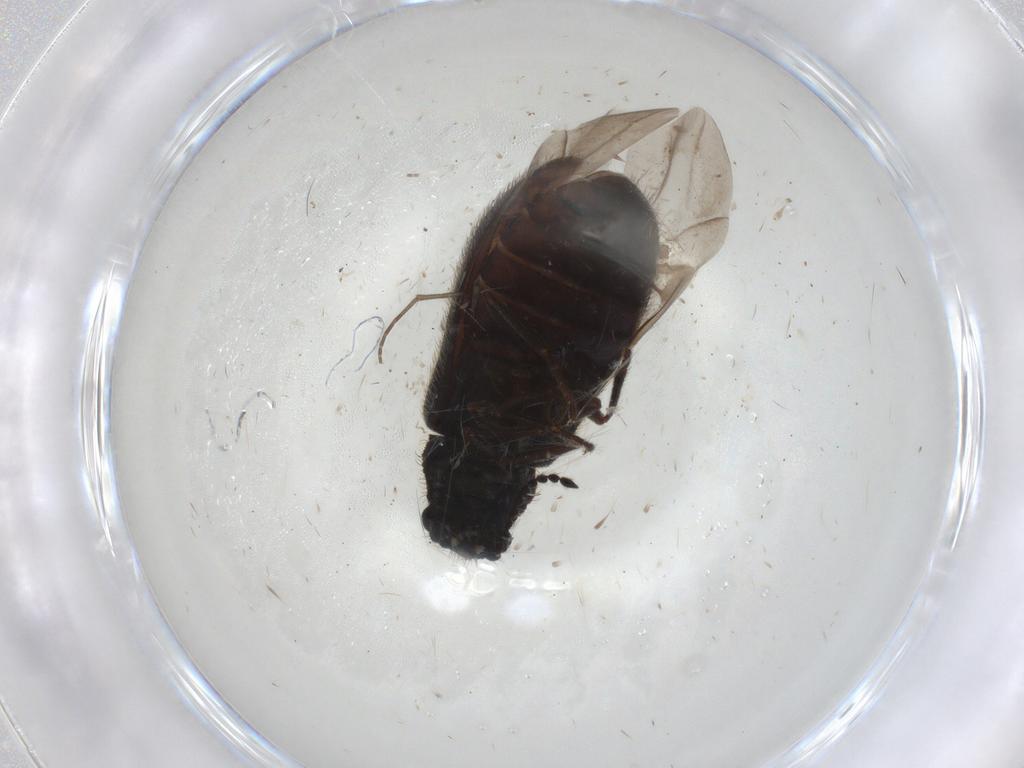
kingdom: Animalia
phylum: Arthropoda
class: Insecta
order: Coleoptera
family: Melyridae
